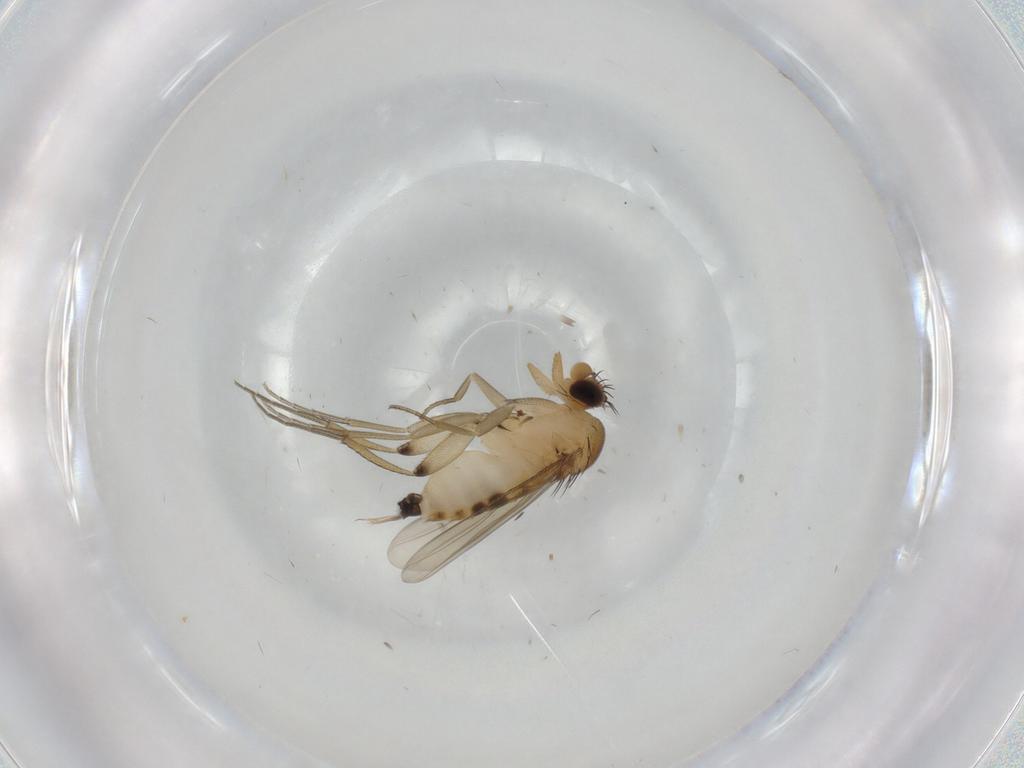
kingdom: Animalia
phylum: Arthropoda
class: Insecta
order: Diptera
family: Phoridae
